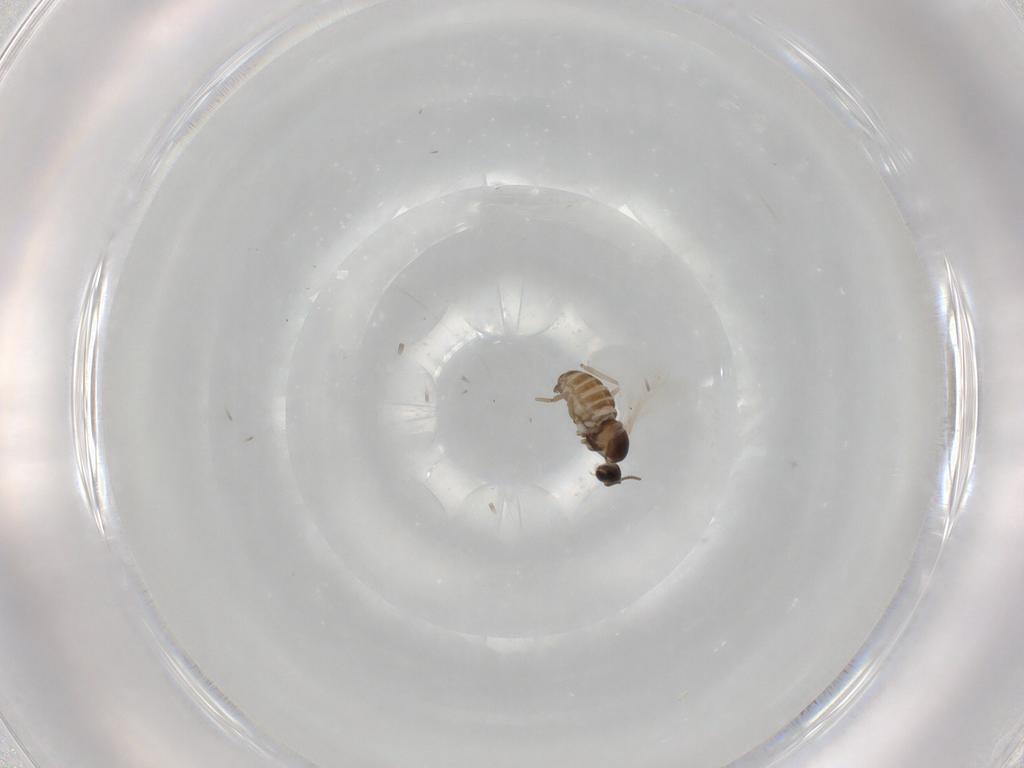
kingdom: Animalia
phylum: Arthropoda
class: Insecta
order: Diptera
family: Cecidomyiidae
